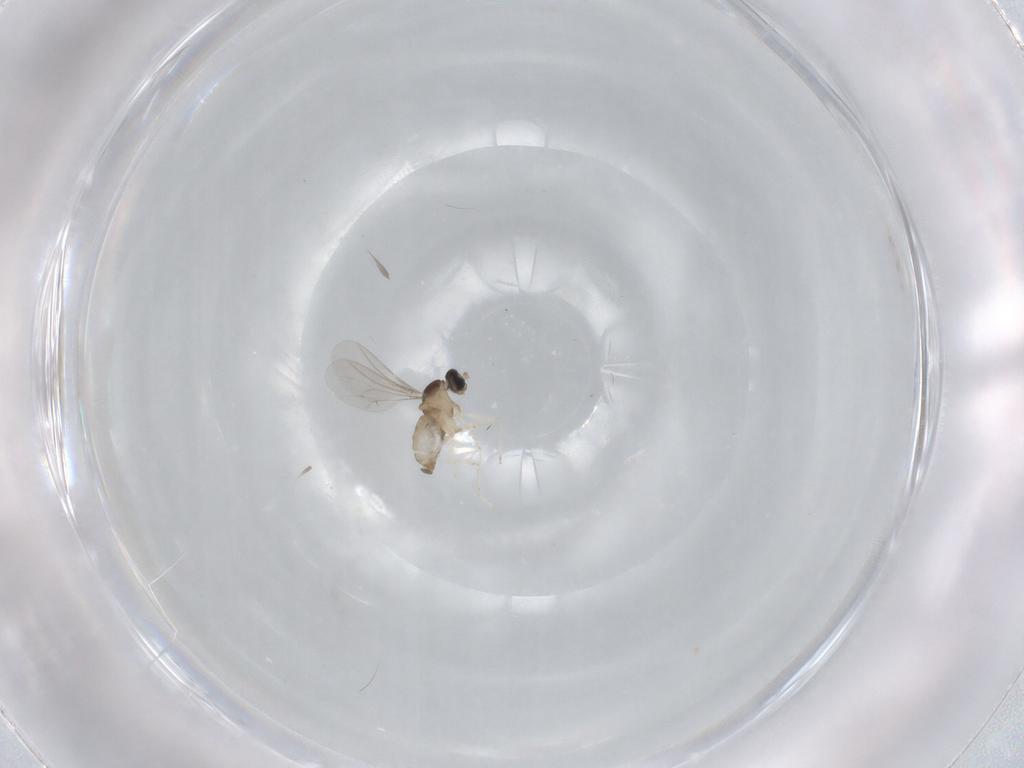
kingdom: Animalia
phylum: Arthropoda
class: Insecta
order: Diptera
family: Cecidomyiidae
